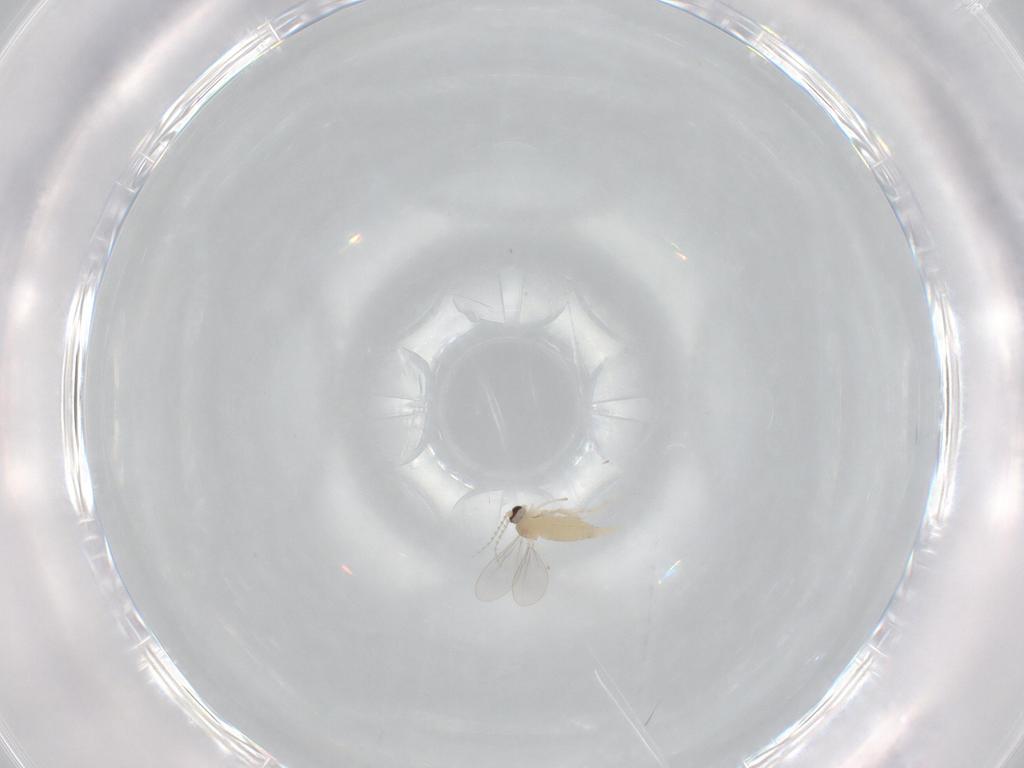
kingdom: Animalia
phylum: Arthropoda
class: Insecta
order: Diptera
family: Cecidomyiidae
